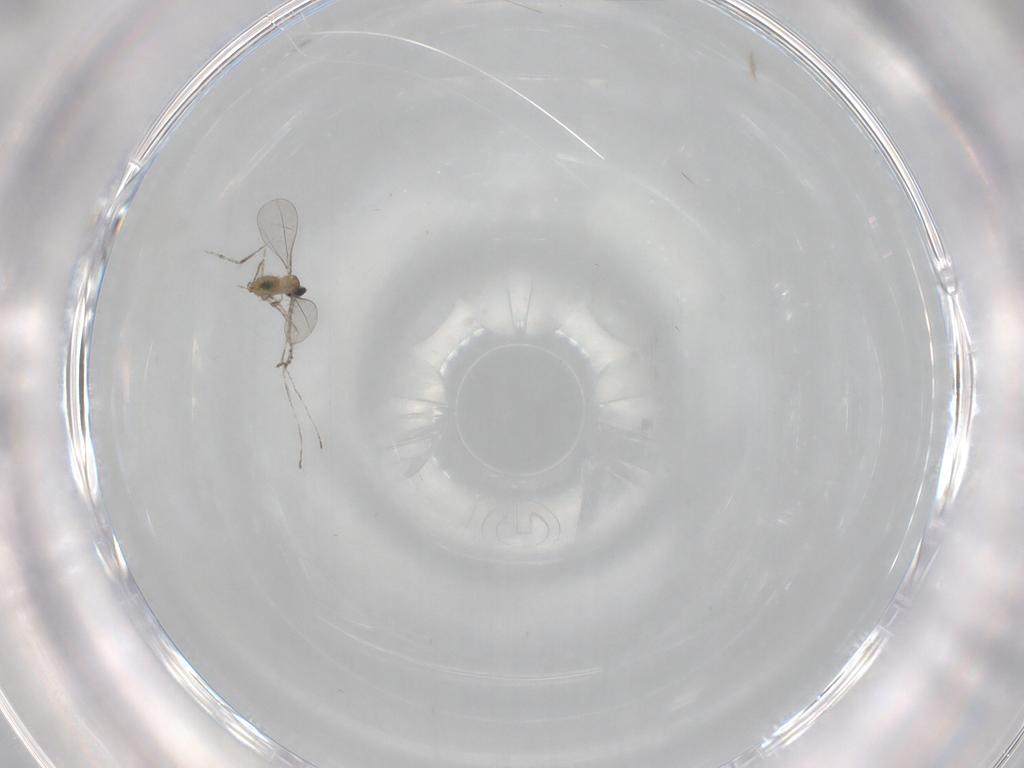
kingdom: Animalia
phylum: Arthropoda
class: Insecta
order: Diptera
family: Cecidomyiidae
